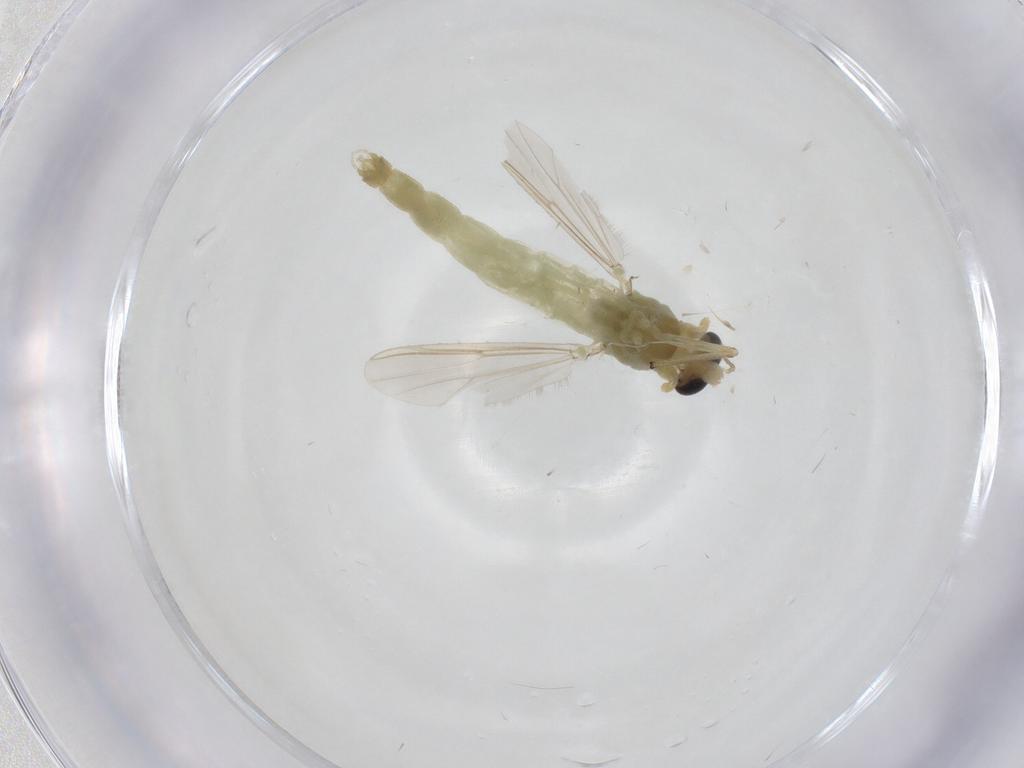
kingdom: Animalia
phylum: Arthropoda
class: Insecta
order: Diptera
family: Chironomidae
